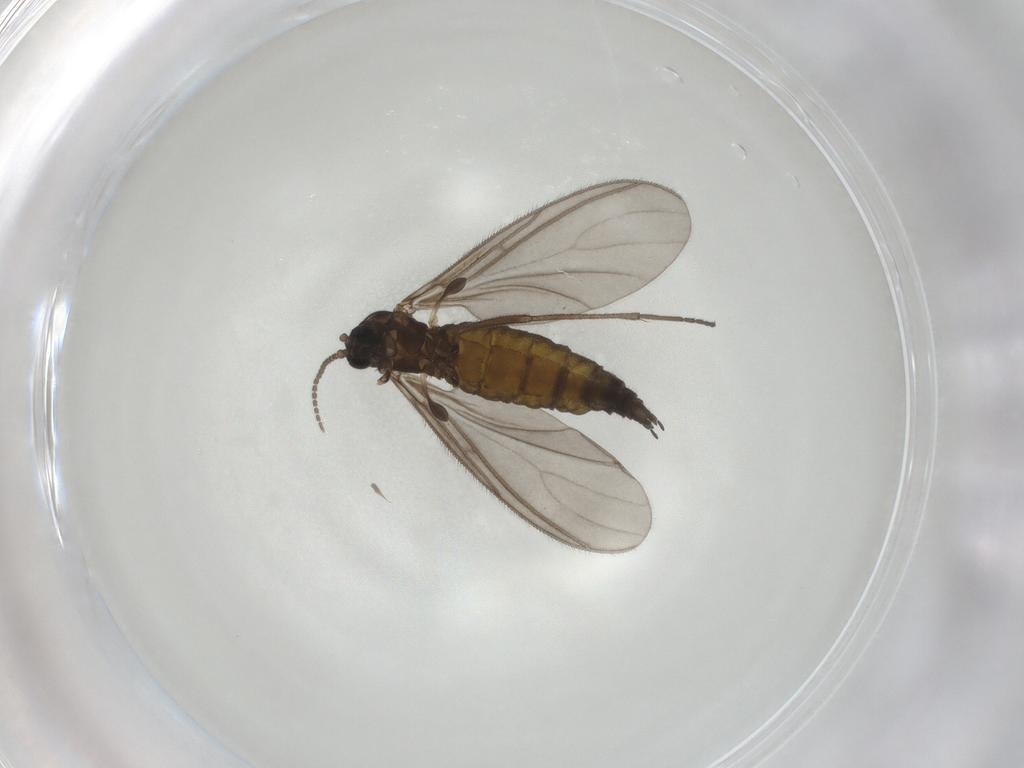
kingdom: Animalia
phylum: Arthropoda
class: Insecta
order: Diptera
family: Sciaridae
